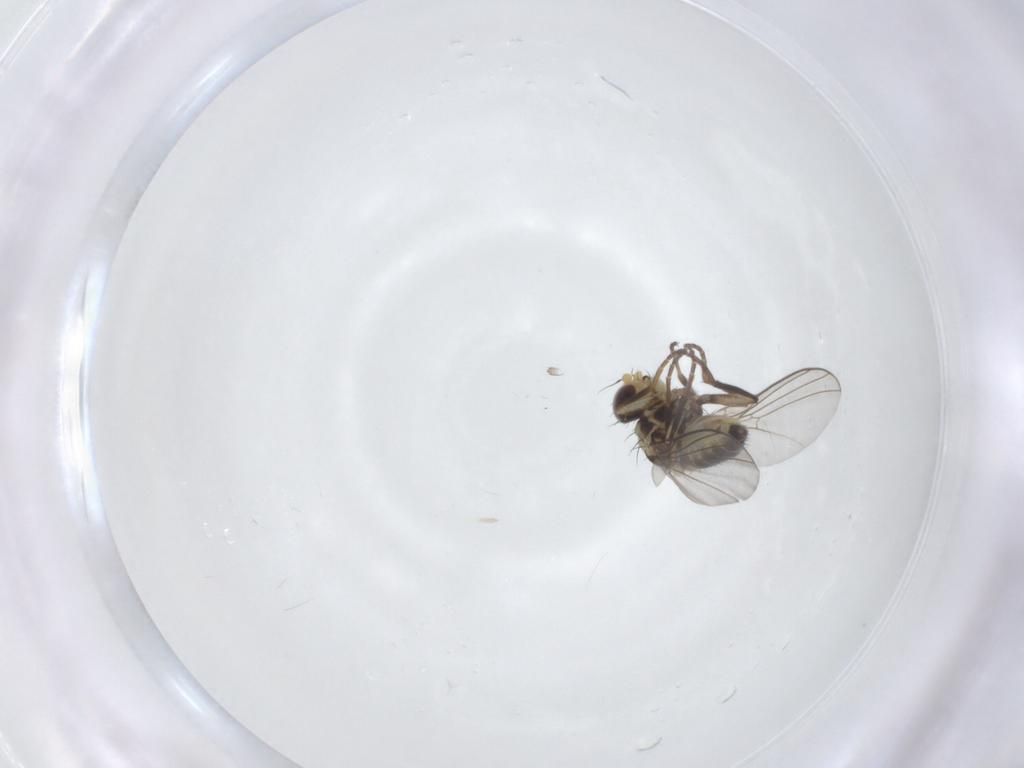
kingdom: Animalia
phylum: Arthropoda
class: Insecta
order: Diptera
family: Agromyzidae
